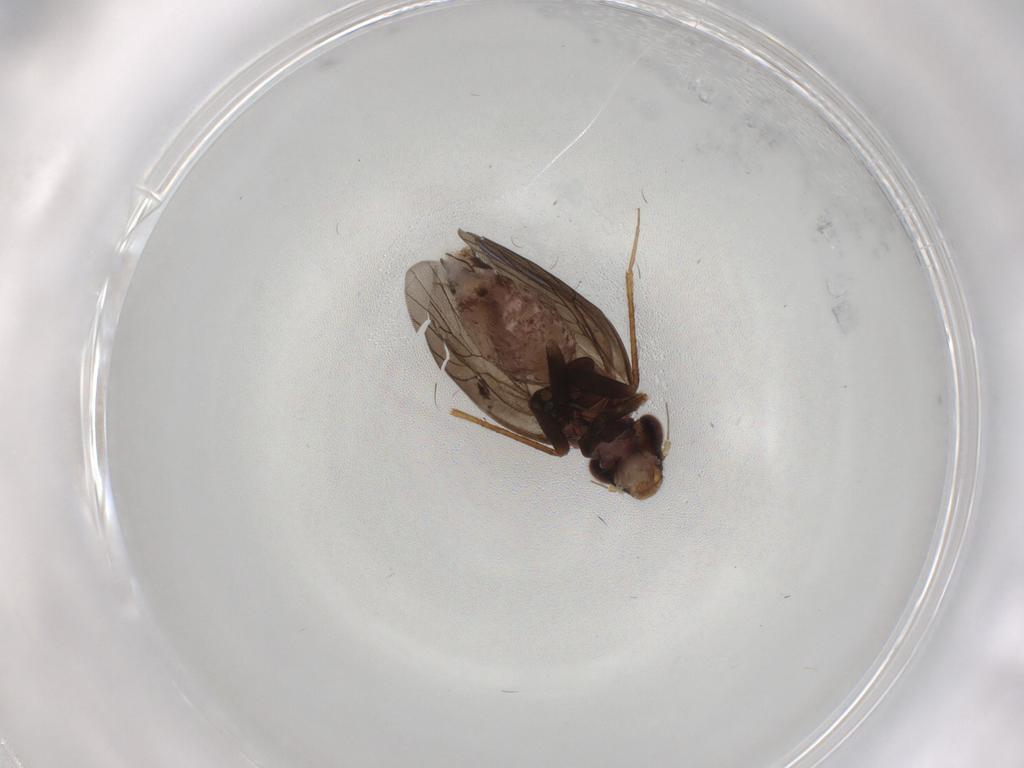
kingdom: Animalia
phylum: Arthropoda
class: Insecta
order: Psocodea
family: Lepidopsocidae
